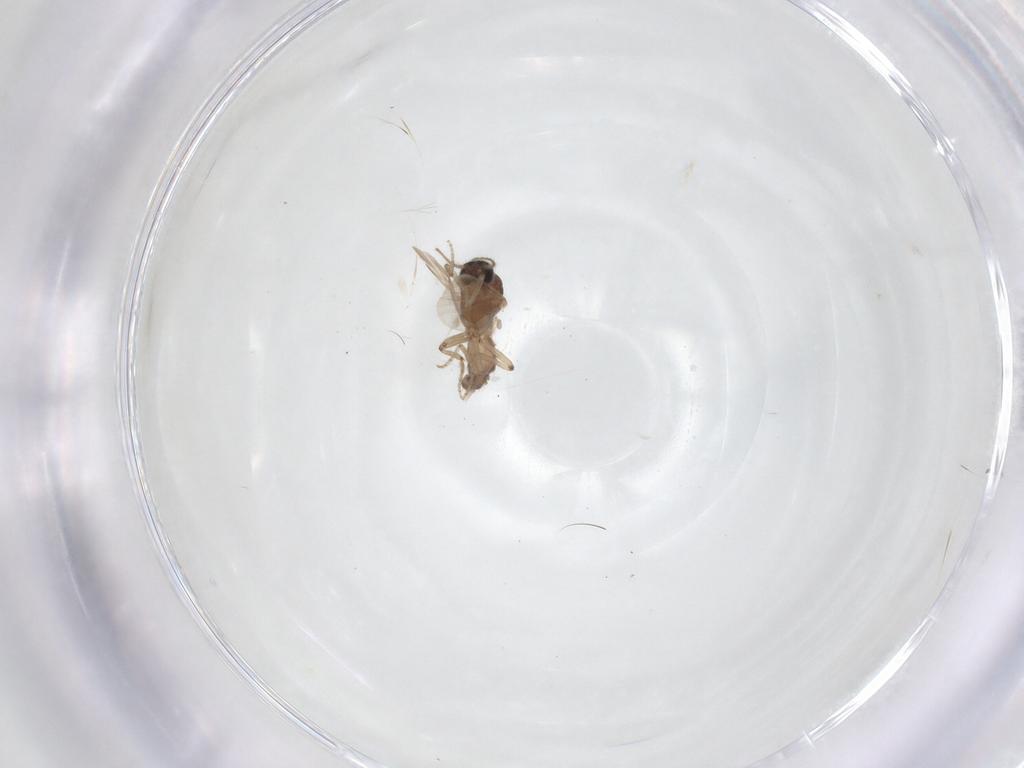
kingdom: Animalia
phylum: Arthropoda
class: Insecta
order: Diptera
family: Ceratopogonidae
